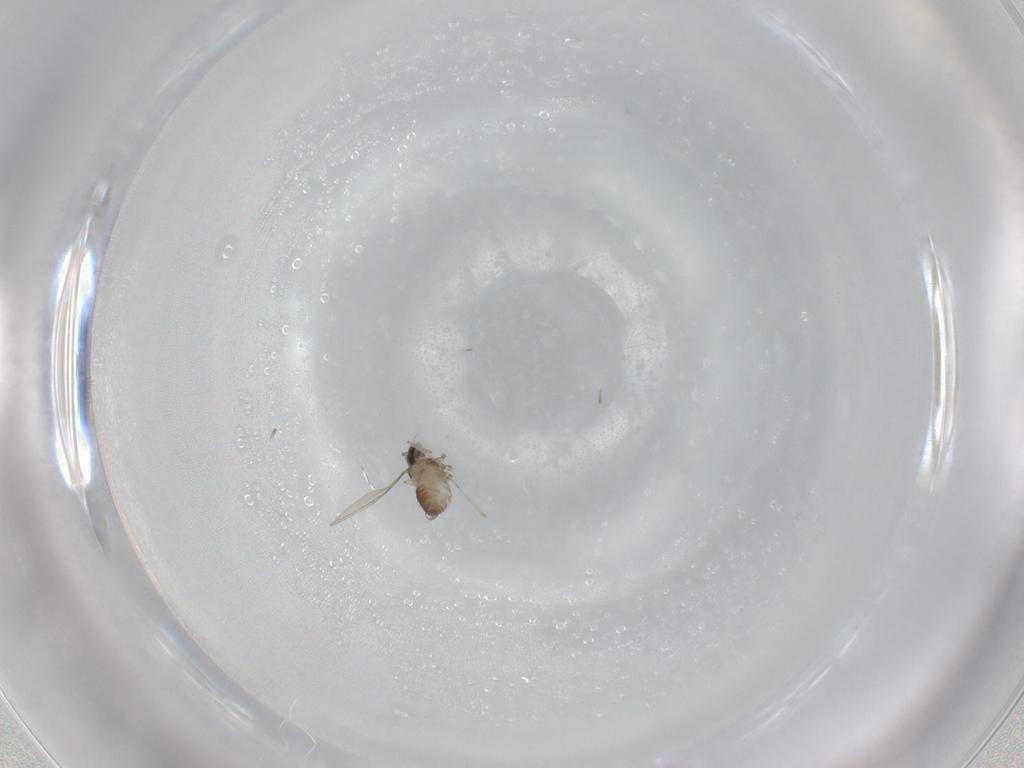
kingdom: Animalia
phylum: Arthropoda
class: Insecta
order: Diptera
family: Cecidomyiidae
